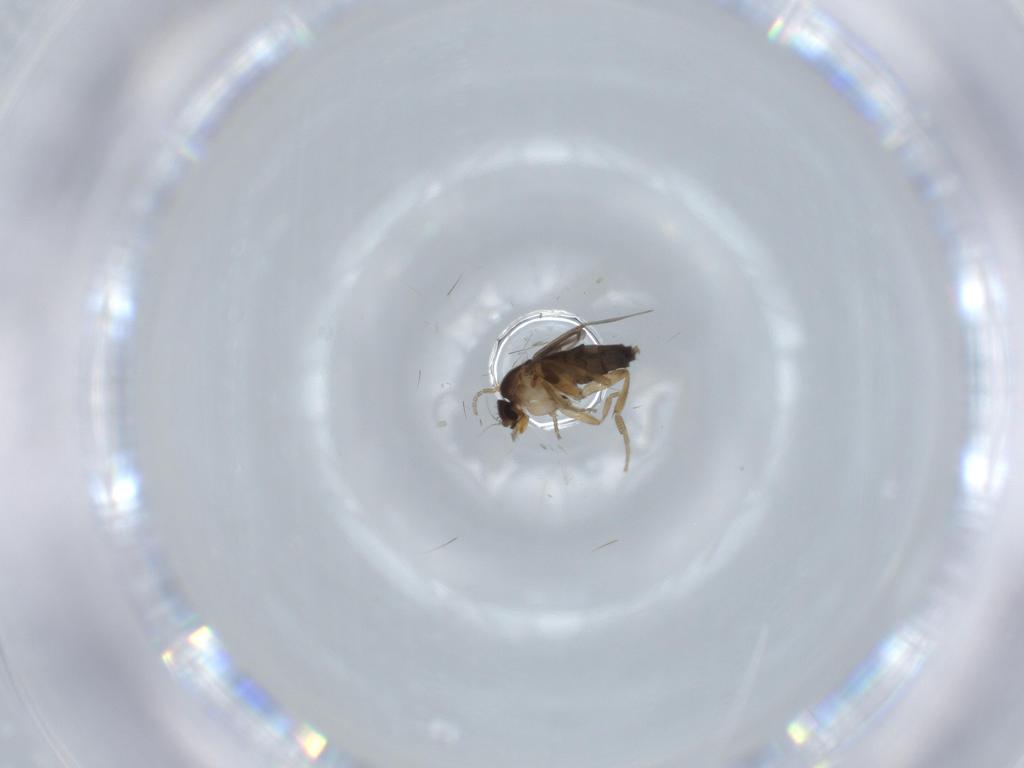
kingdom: Animalia
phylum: Arthropoda
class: Insecta
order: Diptera
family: Phoridae
